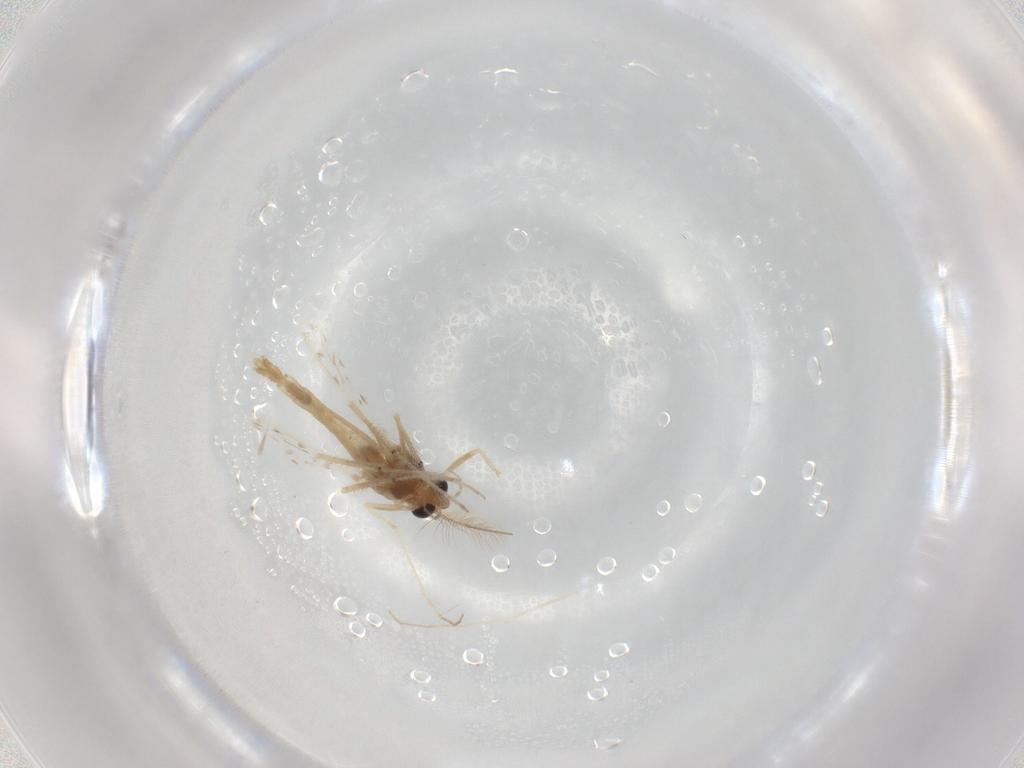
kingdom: Animalia
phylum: Arthropoda
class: Insecta
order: Diptera
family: Chironomidae
